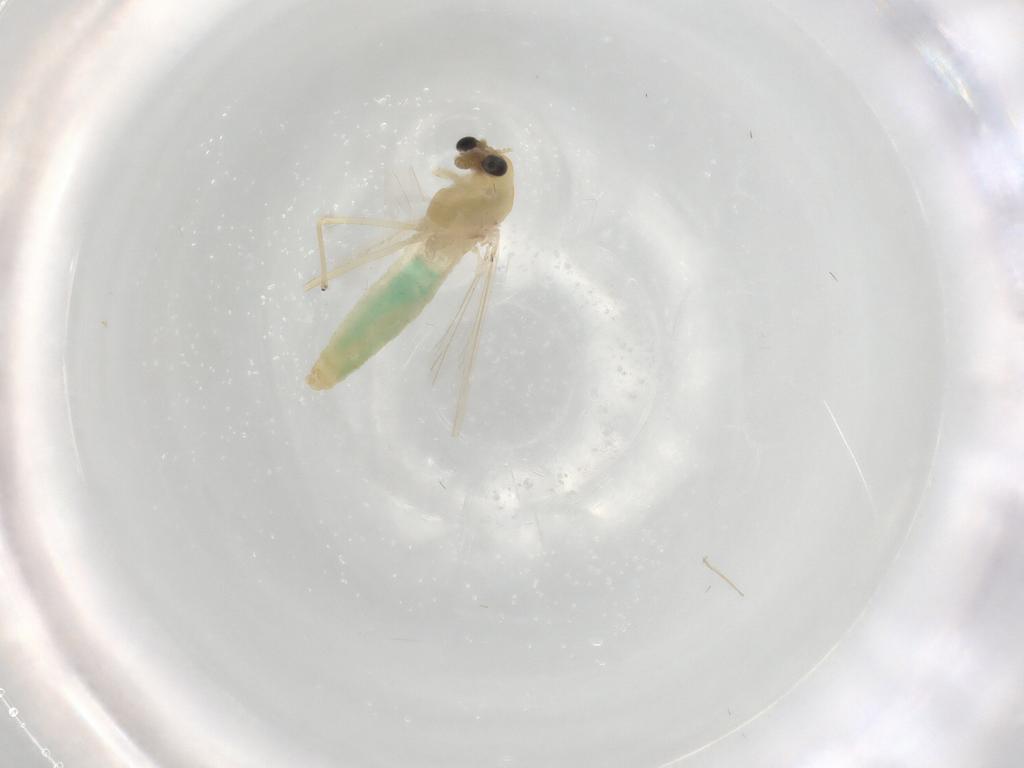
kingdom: Animalia
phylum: Arthropoda
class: Insecta
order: Diptera
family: Chironomidae
